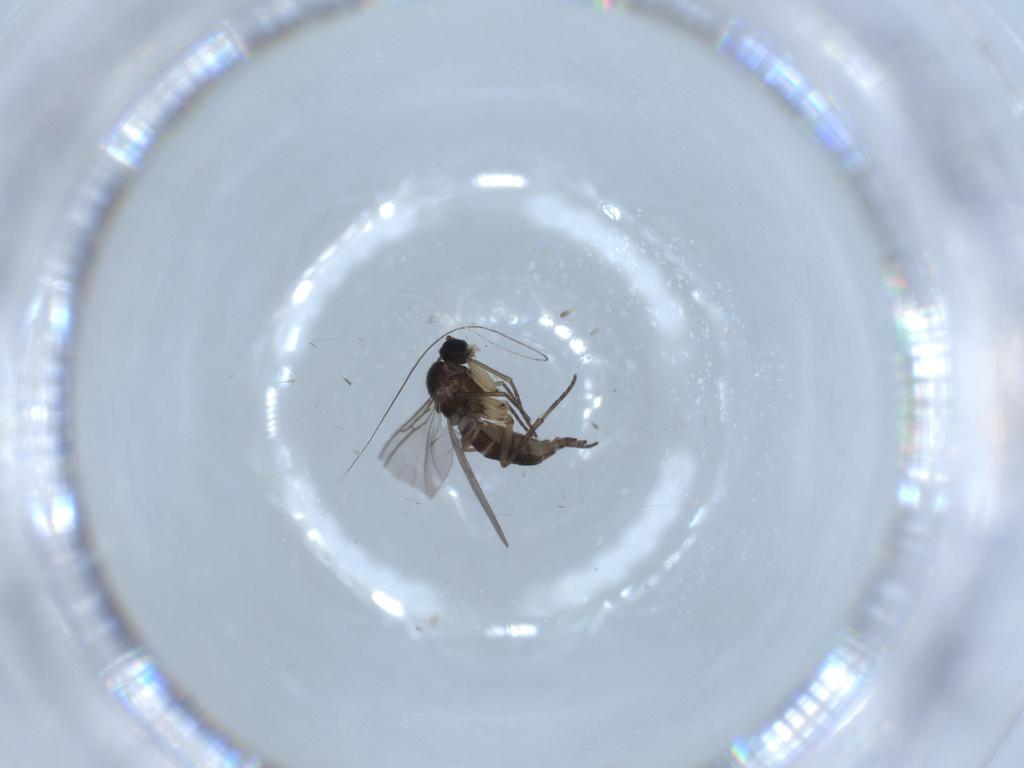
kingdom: Animalia
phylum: Arthropoda
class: Insecta
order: Diptera
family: Sciaridae
